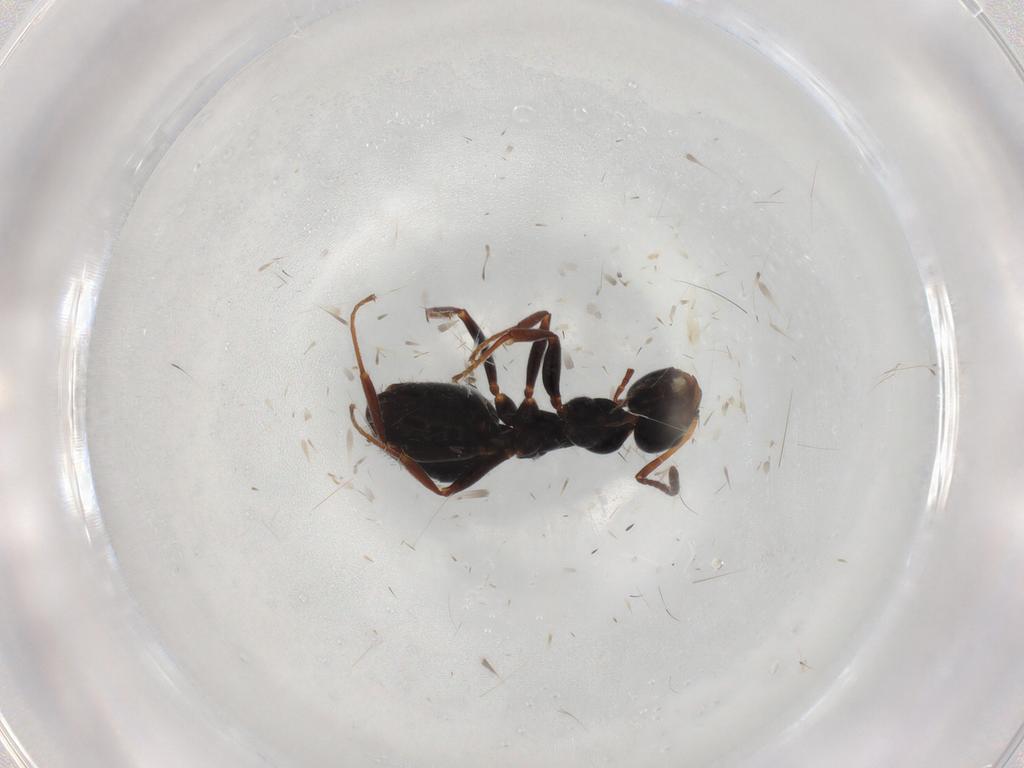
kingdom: Animalia
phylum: Arthropoda
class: Insecta
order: Hymenoptera
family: Formicidae
